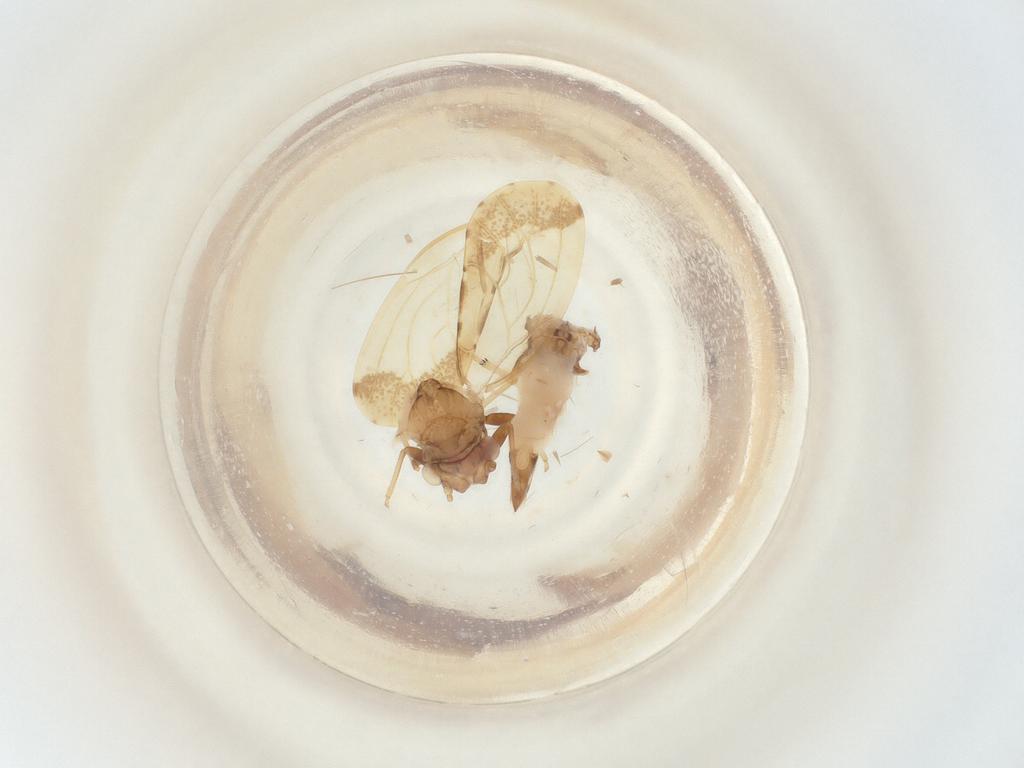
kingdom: Animalia
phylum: Arthropoda
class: Insecta
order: Hemiptera
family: Psyllidae
